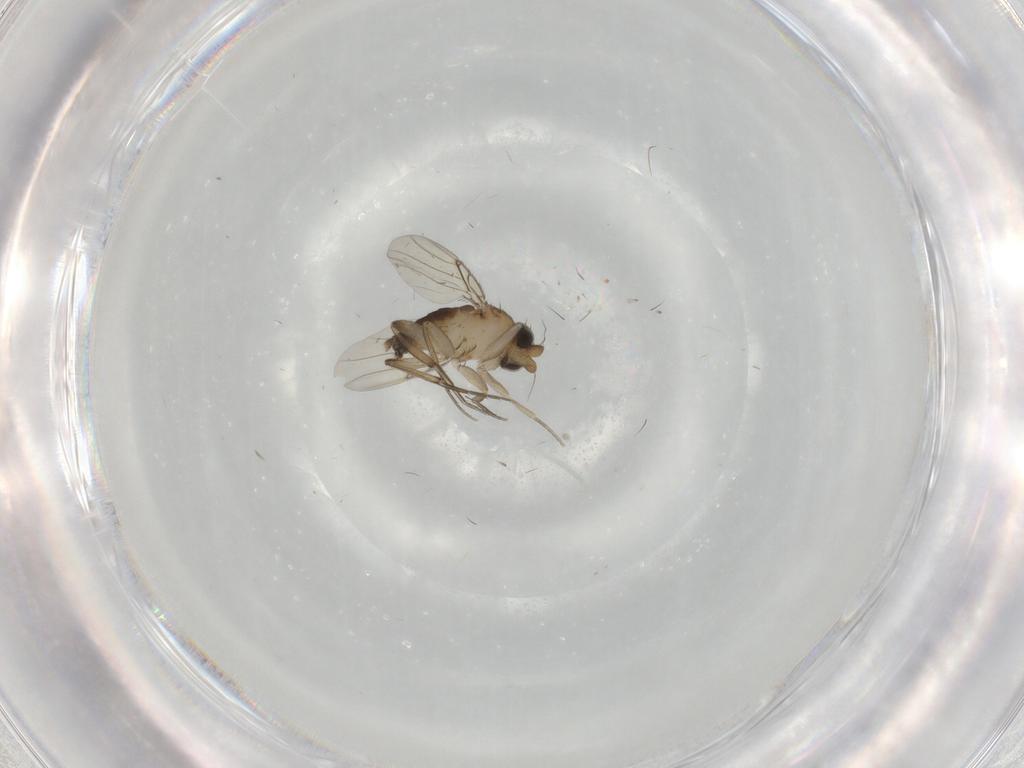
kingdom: Animalia
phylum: Arthropoda
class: Insecta
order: Diptera
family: Phoridae
